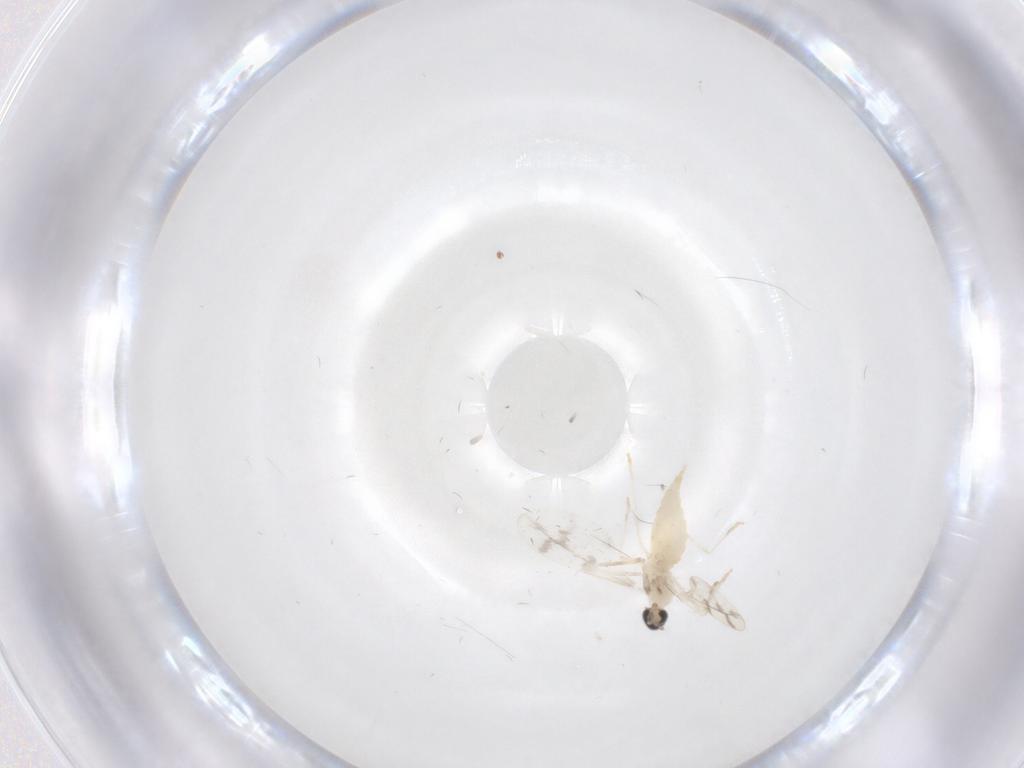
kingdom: Animalia
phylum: Arthropoda
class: Insecta
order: Diptera
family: Cecidomyiidae
